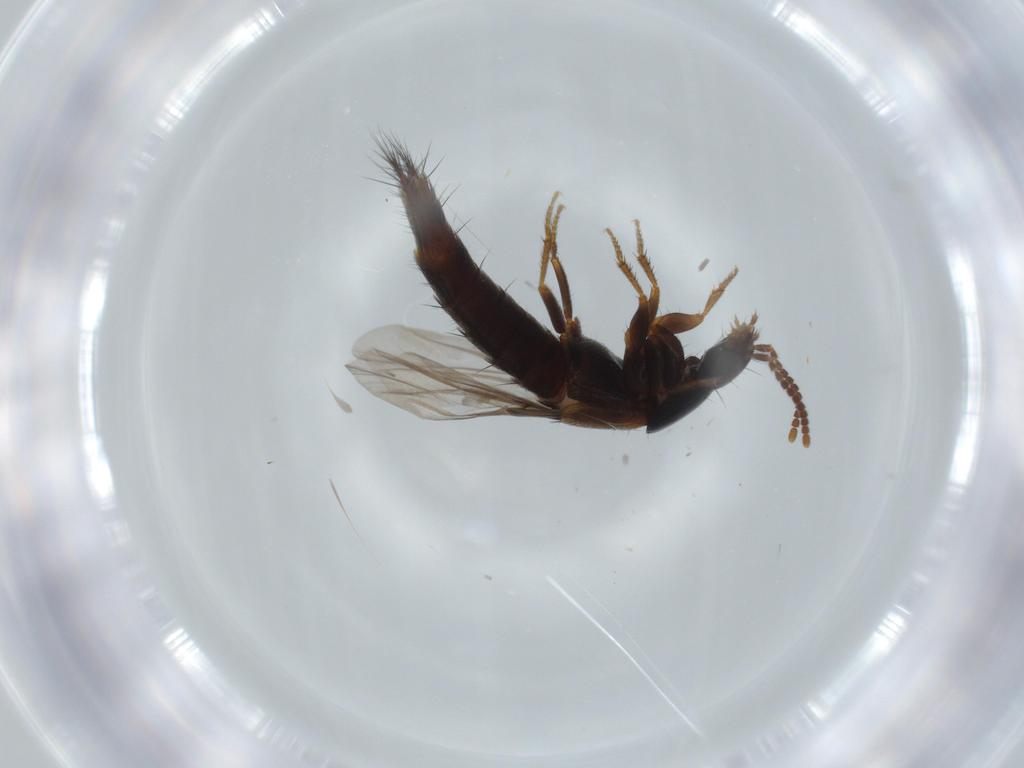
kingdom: Animalia
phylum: Arthropoda
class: Insecta
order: Coleoptera
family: Staphylinidae
